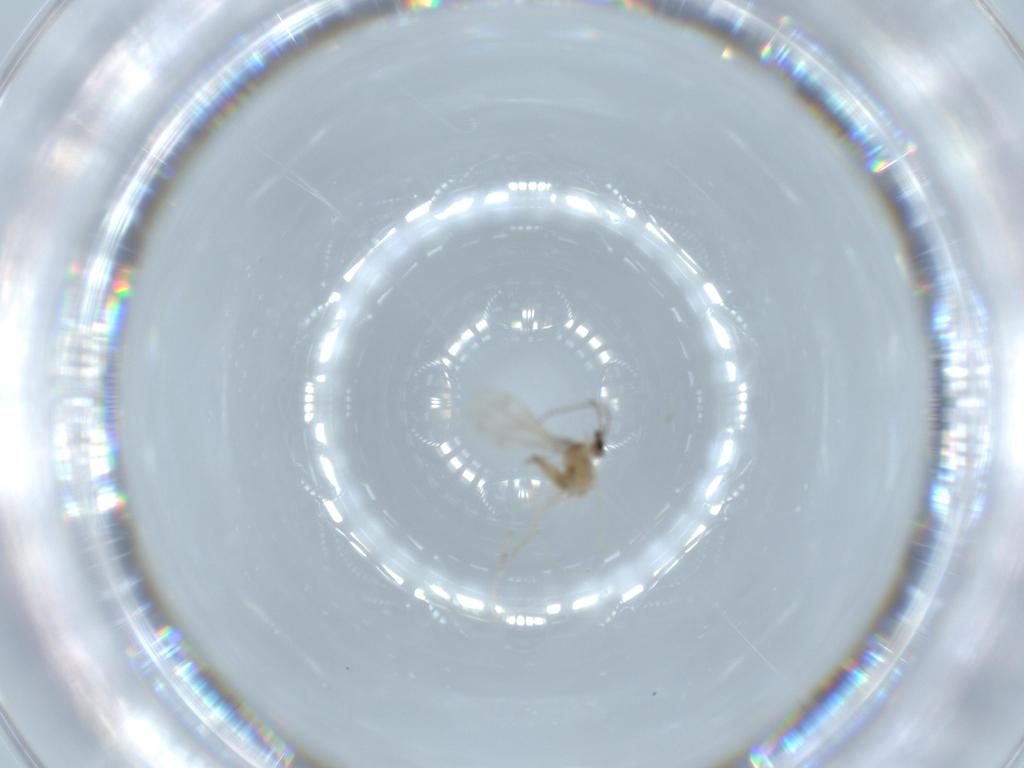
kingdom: Animalia
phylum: Arthropoda
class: Insecta
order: Diptera
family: Cecidomyiidae
